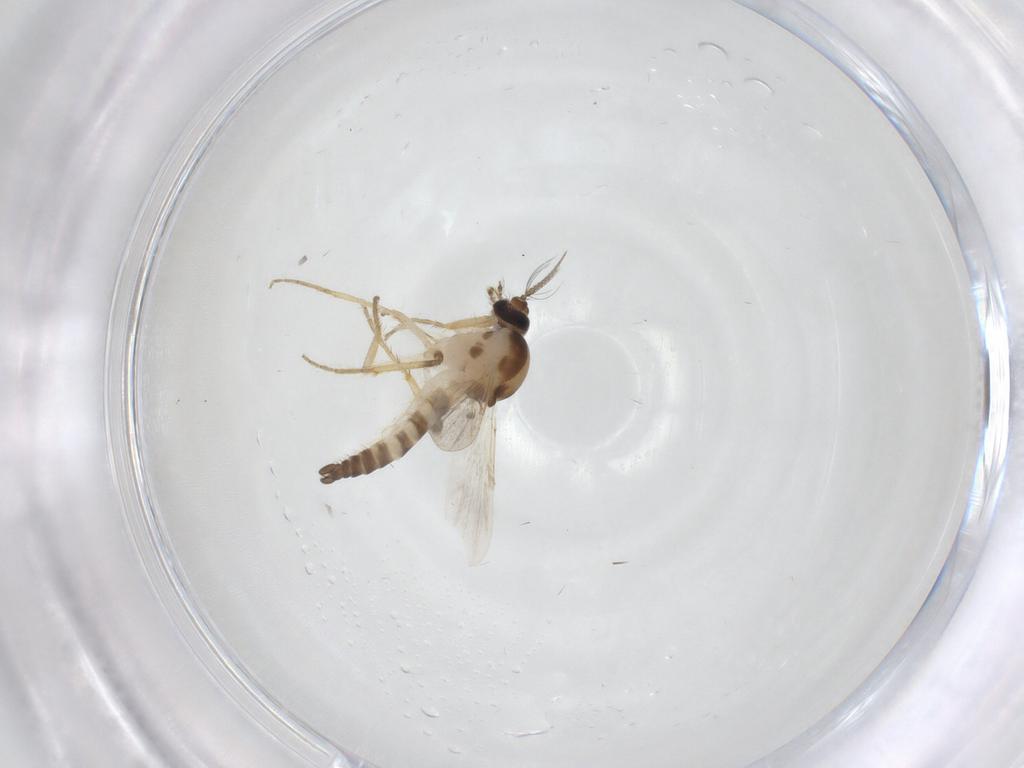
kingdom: Animalia
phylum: Arthropoda
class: Insecta
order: Diptera
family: Ceratopogonidae
